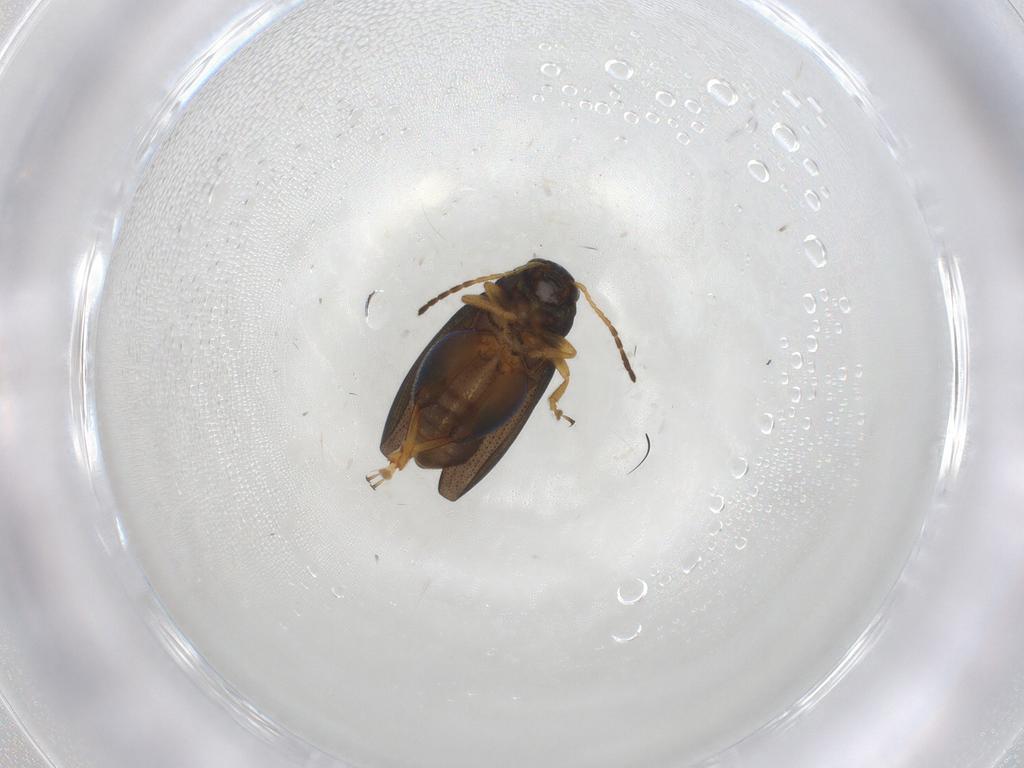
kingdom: Animalia
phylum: Arthropoda
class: Insecta
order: Coleoptera
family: Chrysomelidae
